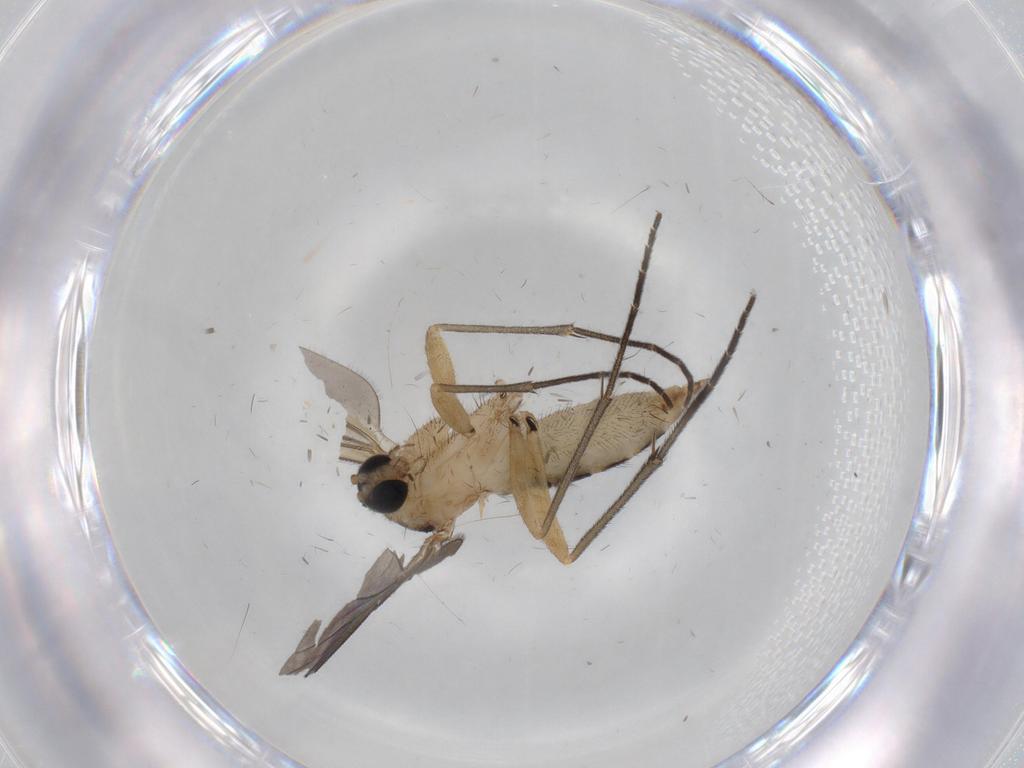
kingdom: Animalia
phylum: Arthropoda
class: Insecta
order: Diptera
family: Sciaridae
